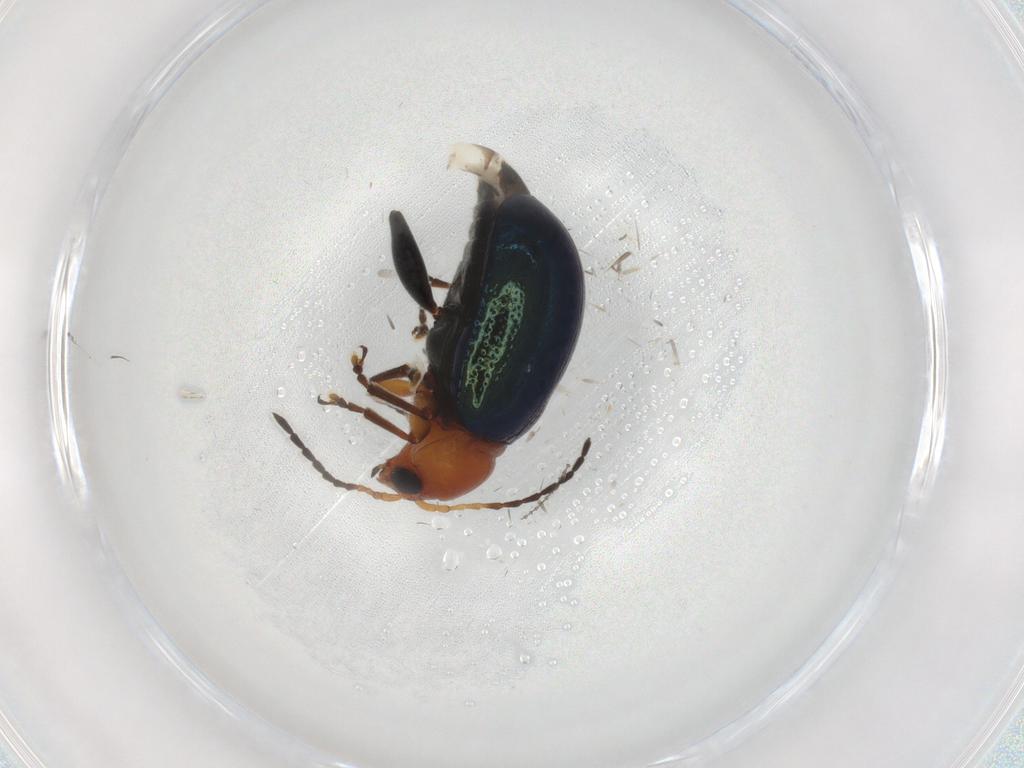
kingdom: Animalia
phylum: Arthropoda
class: Insecta
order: Coleoptera
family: Chrysomelidae
